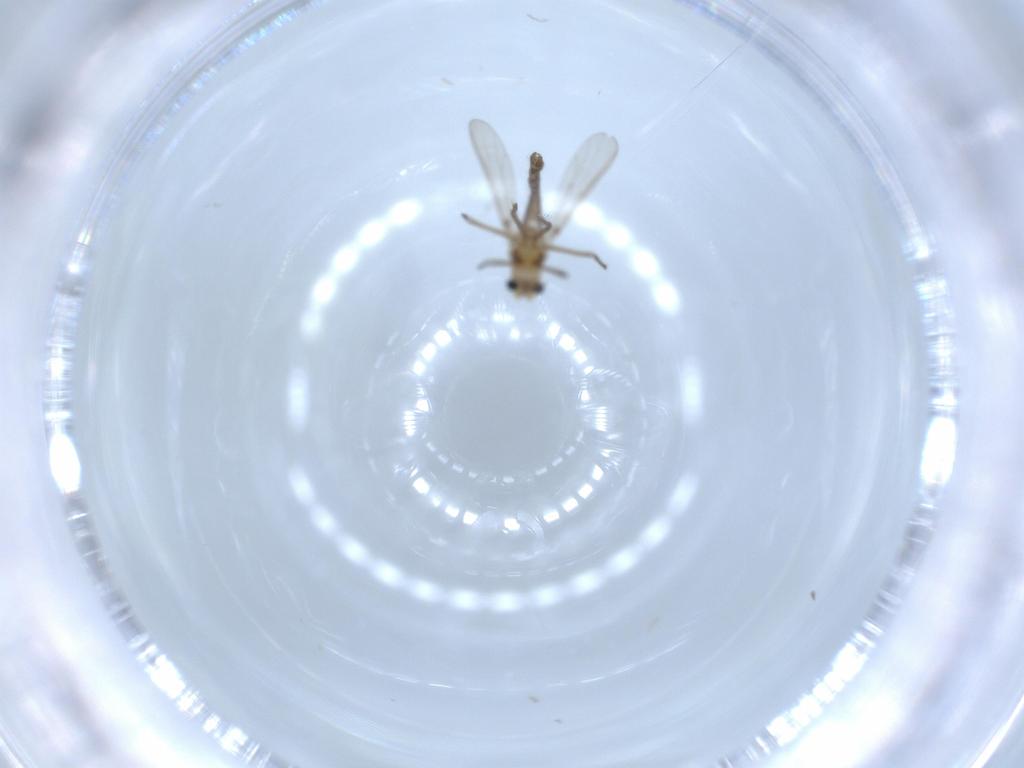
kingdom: Animalia
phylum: Arthropoda
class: Insecta
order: Diptera
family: Chironomidae
